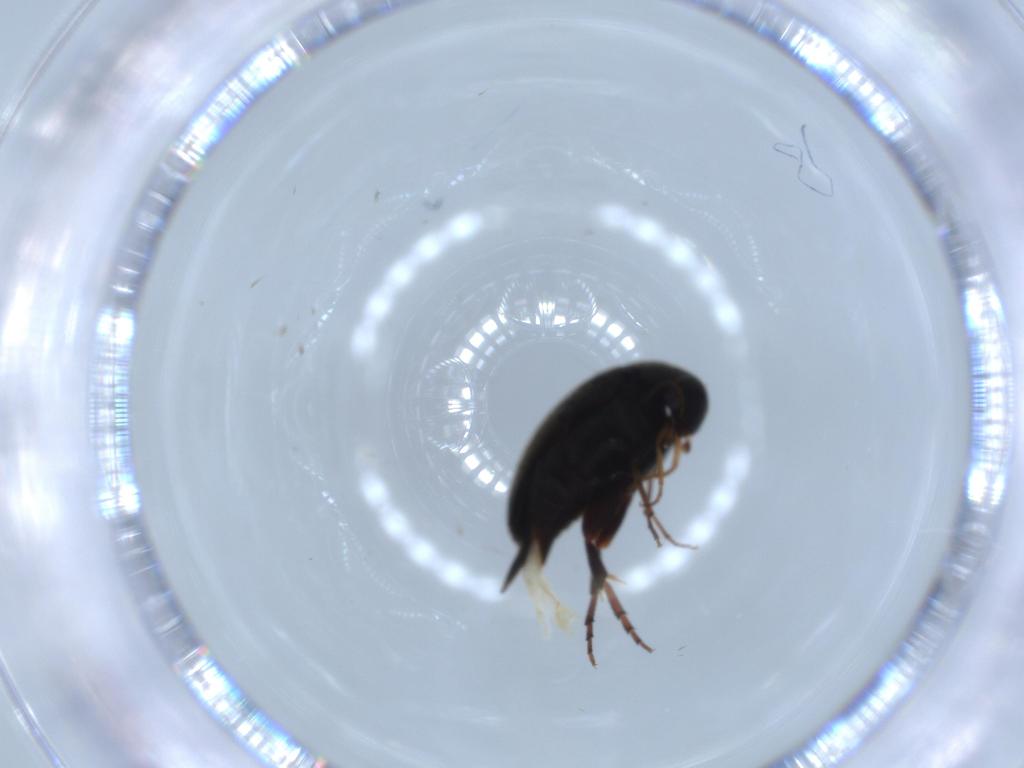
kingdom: Animalia
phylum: Arthropoda
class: Insecta
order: Coleoptera
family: Mordellidae
